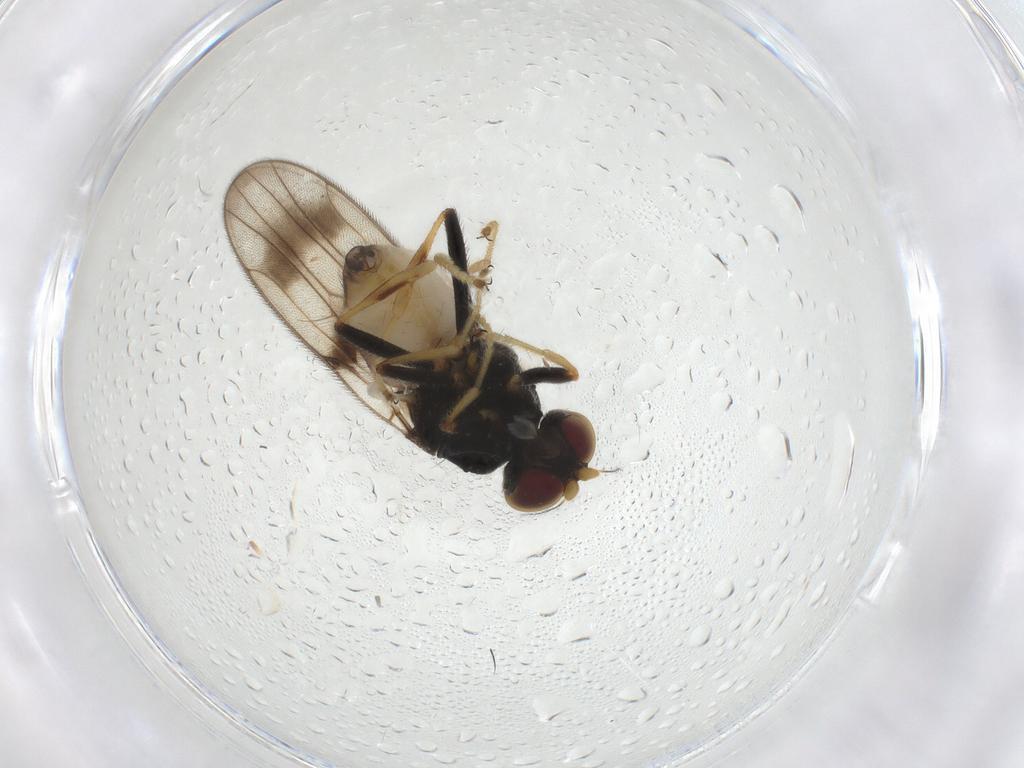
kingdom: Animalia
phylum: Arthropoda
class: Insecta
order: Diptera
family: Chloropidae
